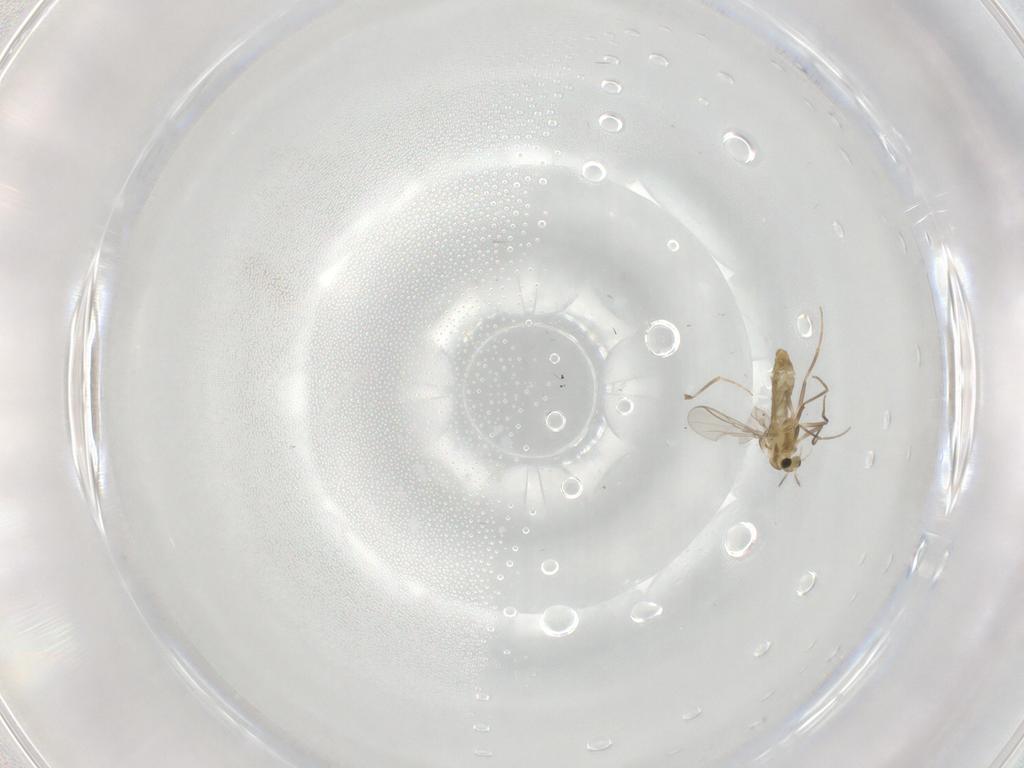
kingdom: Animalia
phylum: Arthropoda
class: Insecta
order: Diptera
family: Chironomidae
